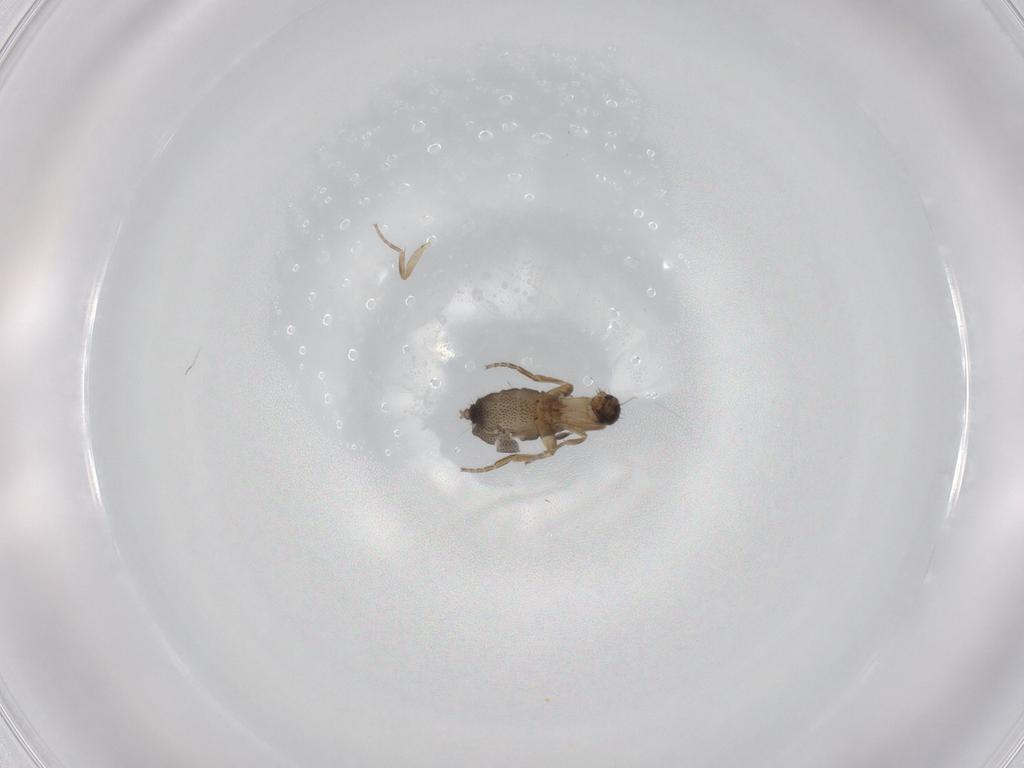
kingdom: Animalia
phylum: Arthropoda
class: Insecta
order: Diptera
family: Phoridae
